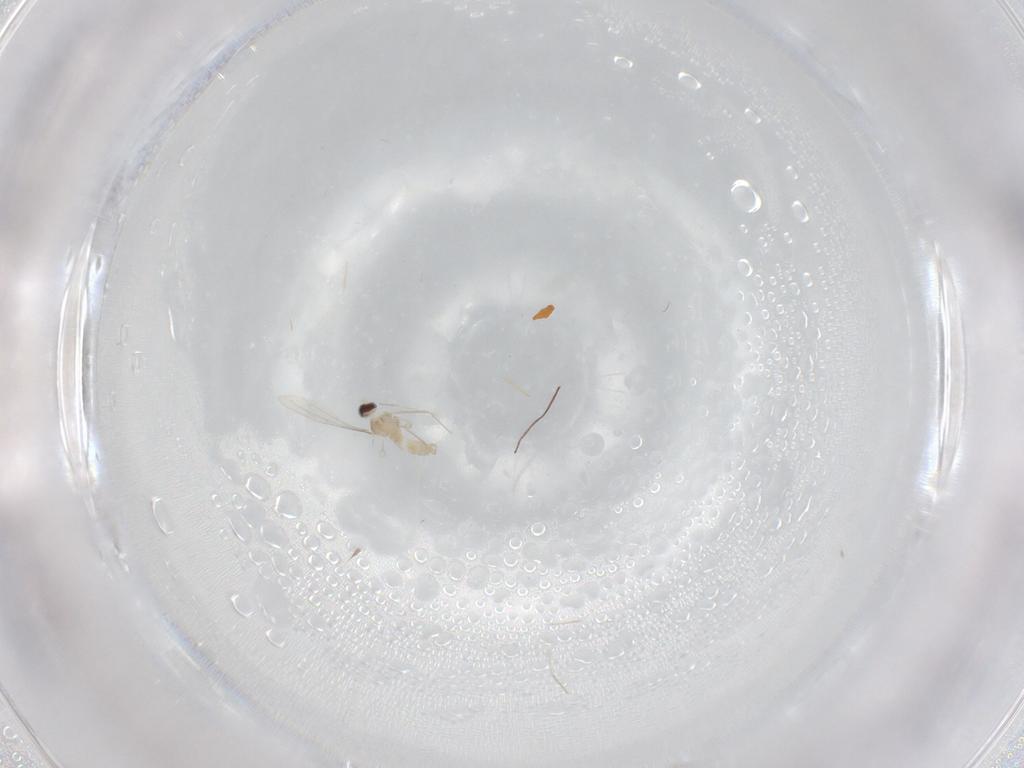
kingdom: Animalia
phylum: Arthropoda
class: Insecta
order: Diptera
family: Cecidomyiidae
